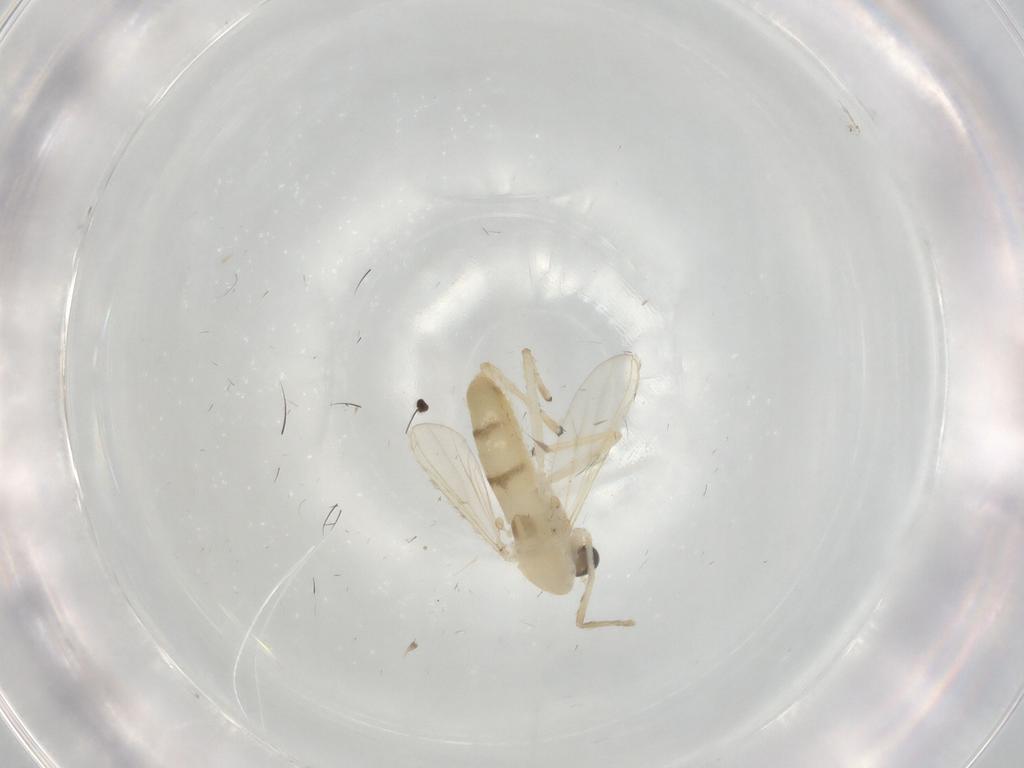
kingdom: Animalia
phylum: Arthropoda
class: Insecta
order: Diptera
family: Chironomidae
